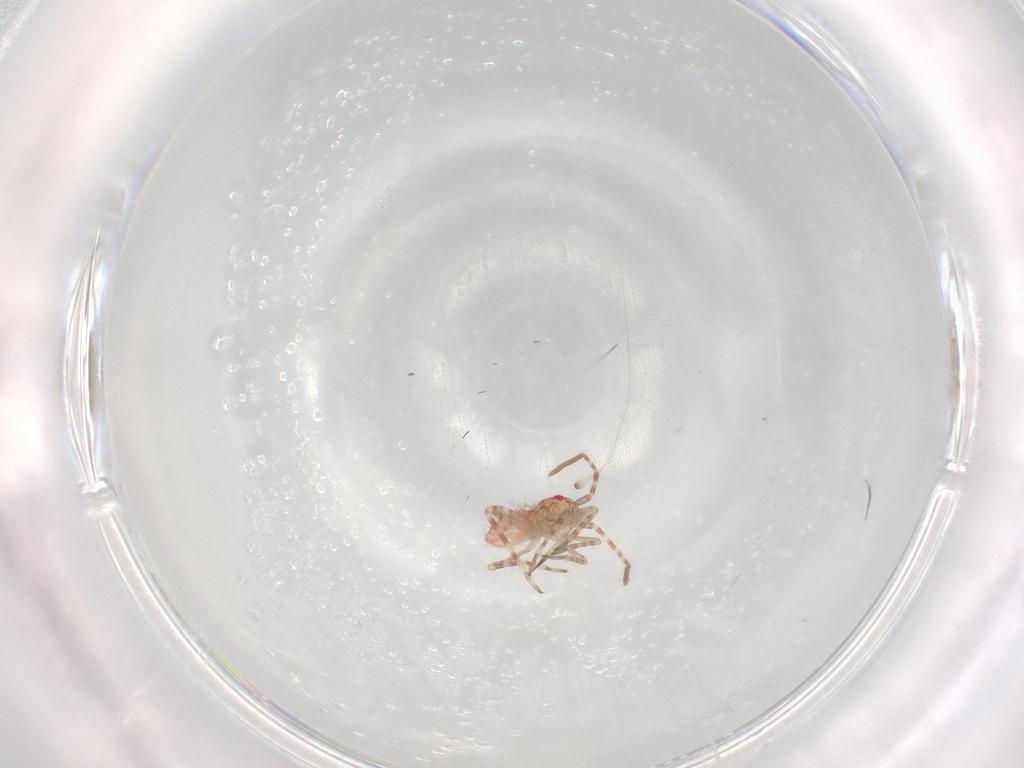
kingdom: Animalia
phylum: Arthropoda
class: Insecta
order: Hemiptera
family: Miridae
